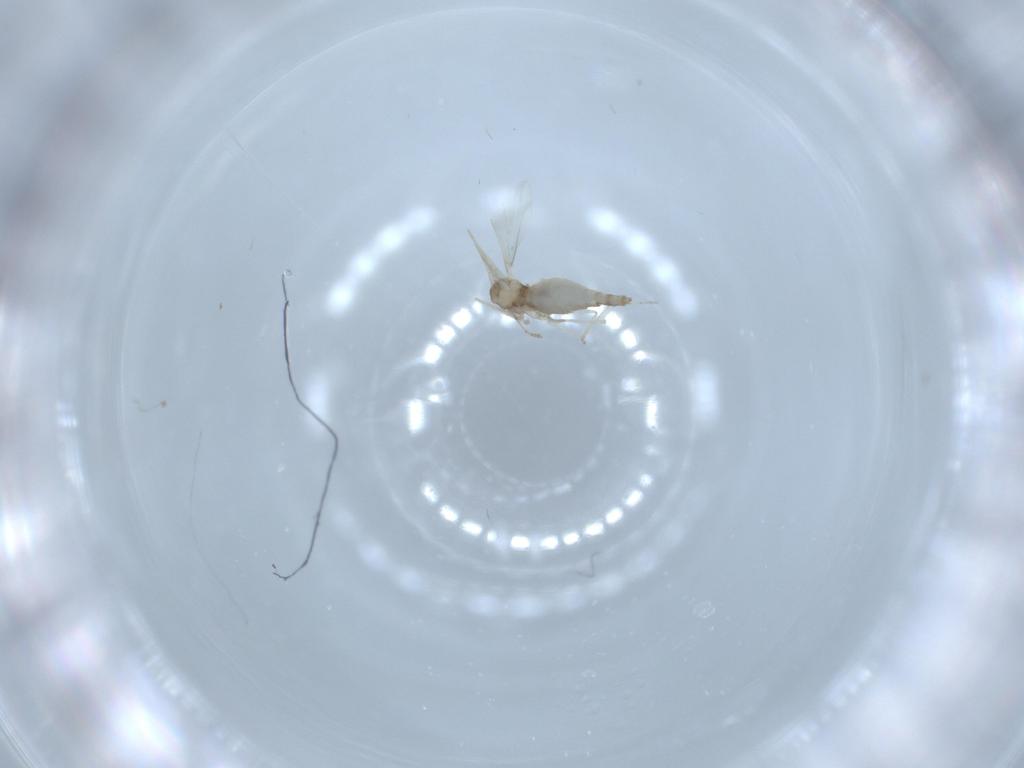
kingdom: Animalia
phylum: Arthropoda
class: Insecta
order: Diptera
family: Cecidomyiidae
